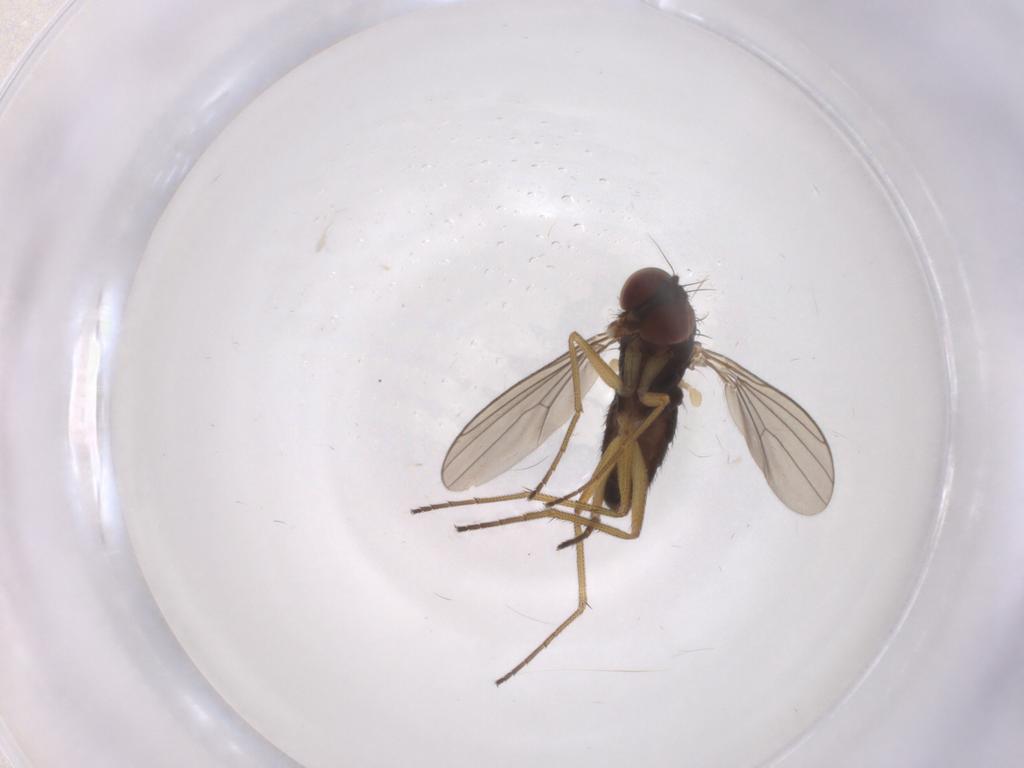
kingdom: Animalia
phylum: Arthropoda
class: Insecta
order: Diptera
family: Dolichopodidae
